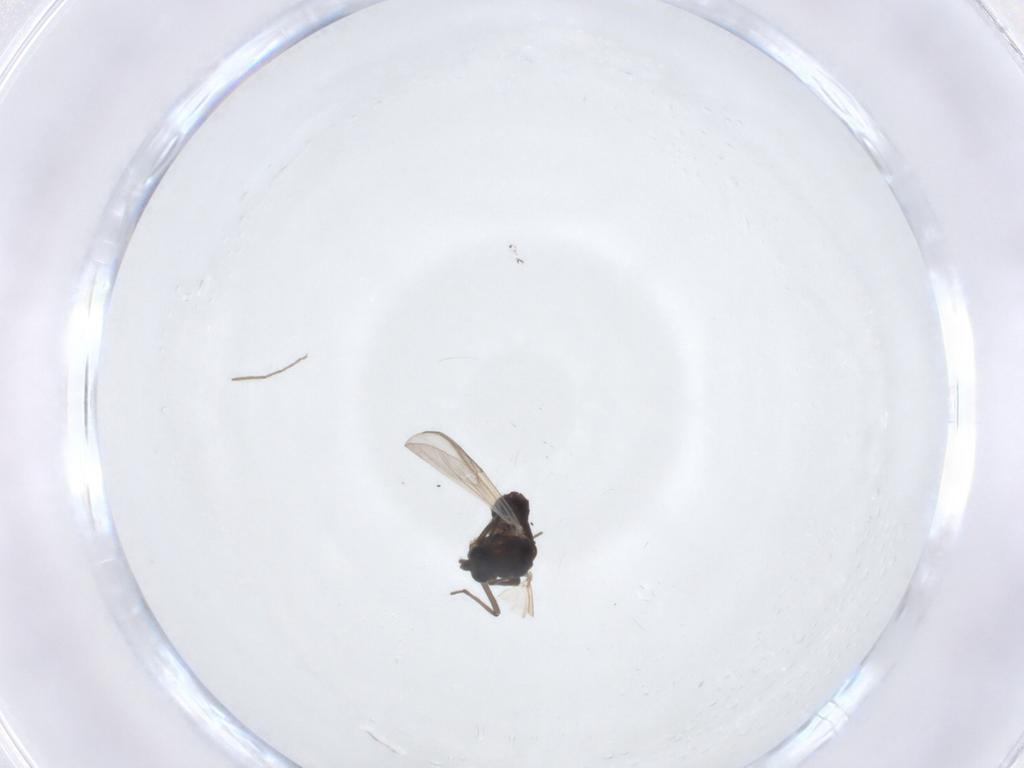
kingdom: Animalia
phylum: Arthropoda
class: Insecta
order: Diptera
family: Chironomidae
